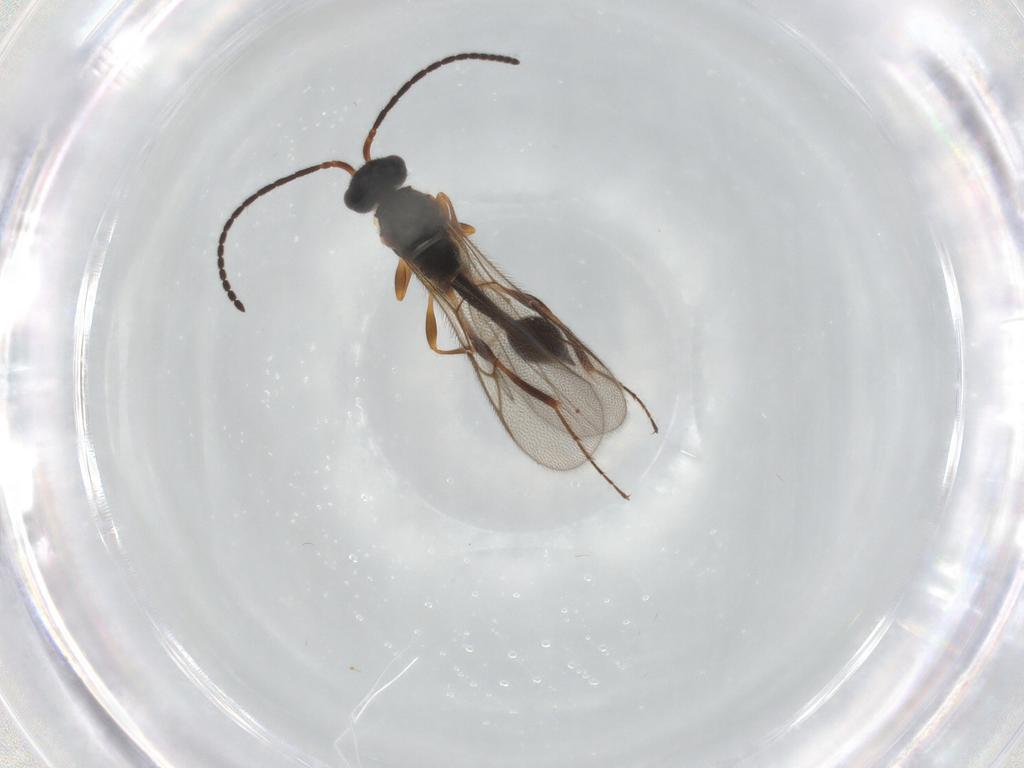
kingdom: Animalia
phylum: Arthropoda
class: Insecta
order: Hymenoptera
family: Diapriidae
